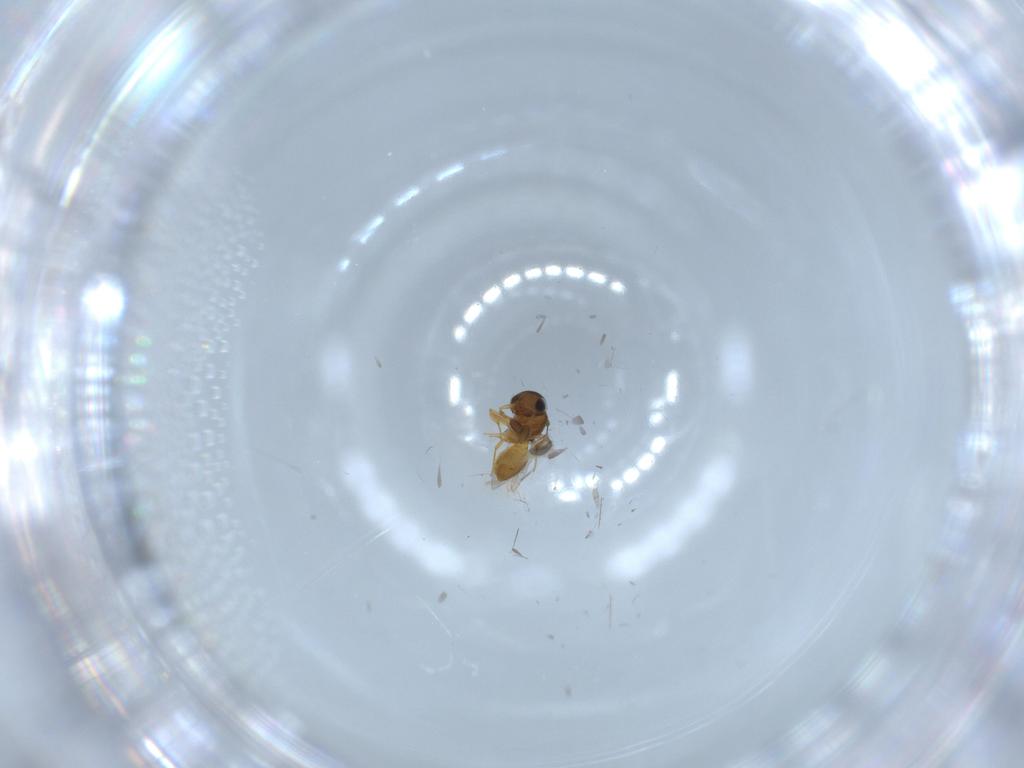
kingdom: Animalia
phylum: Arthropoda
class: Insecta
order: Hymenoptera
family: Scelionidae
